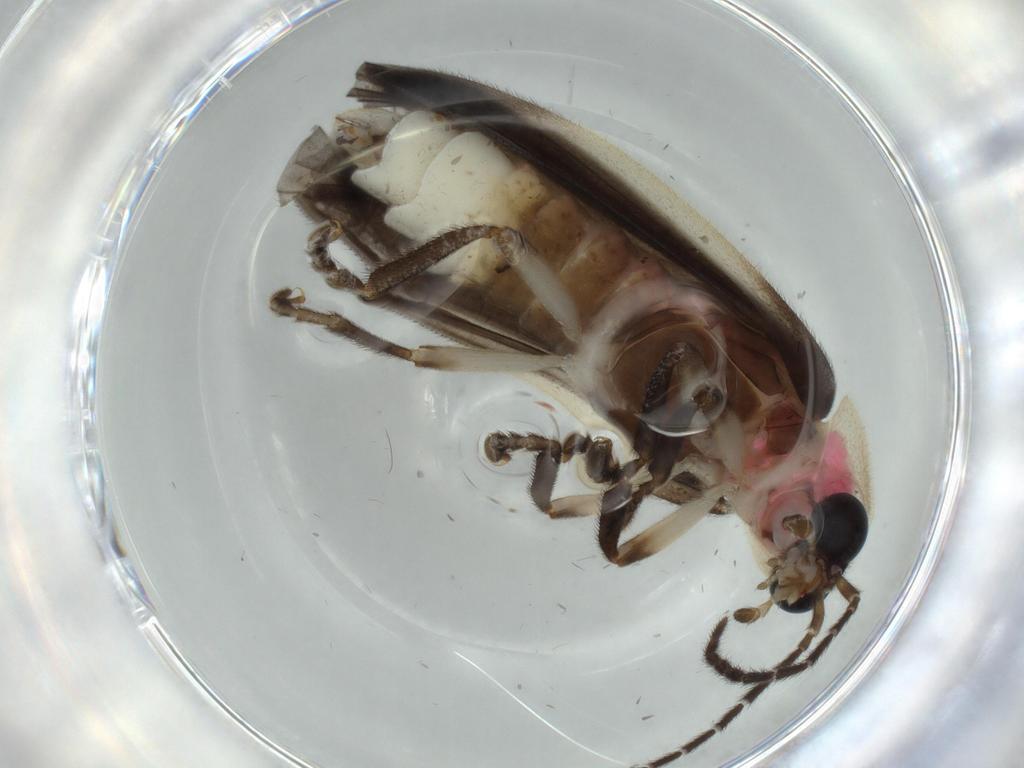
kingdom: Animalia
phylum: Arthropoda
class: Insecta
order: Coleoptera
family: Lampyridae
